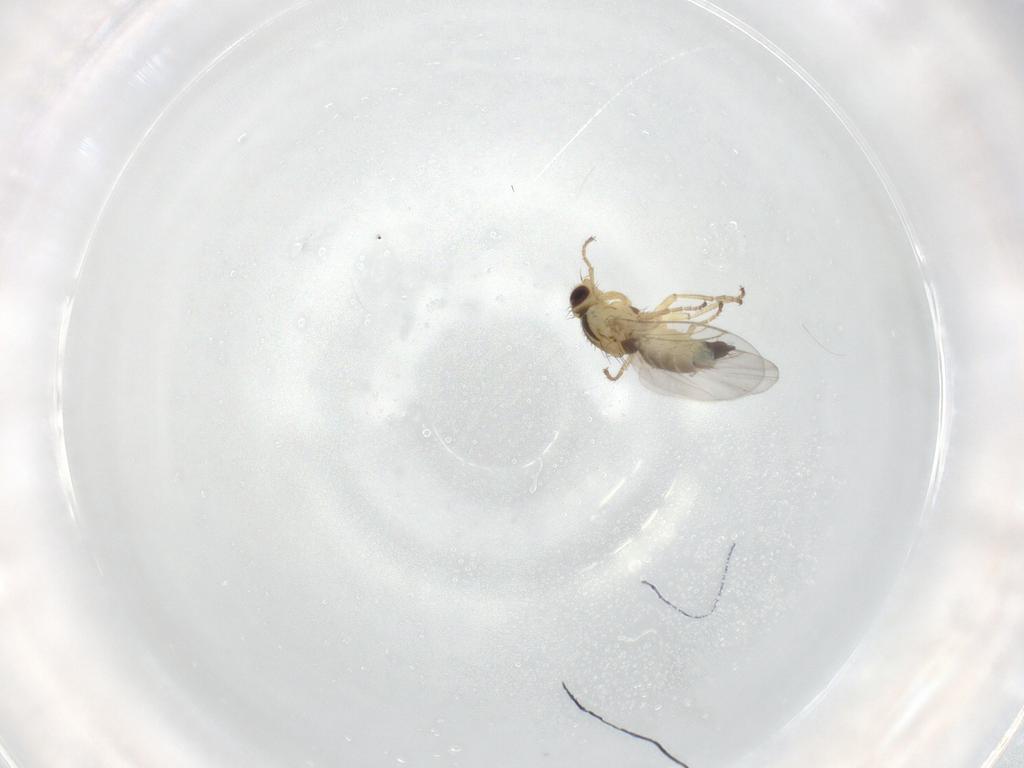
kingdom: Animalia
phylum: Arthropoda
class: Insecta
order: Diptera
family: Agromyzidae
